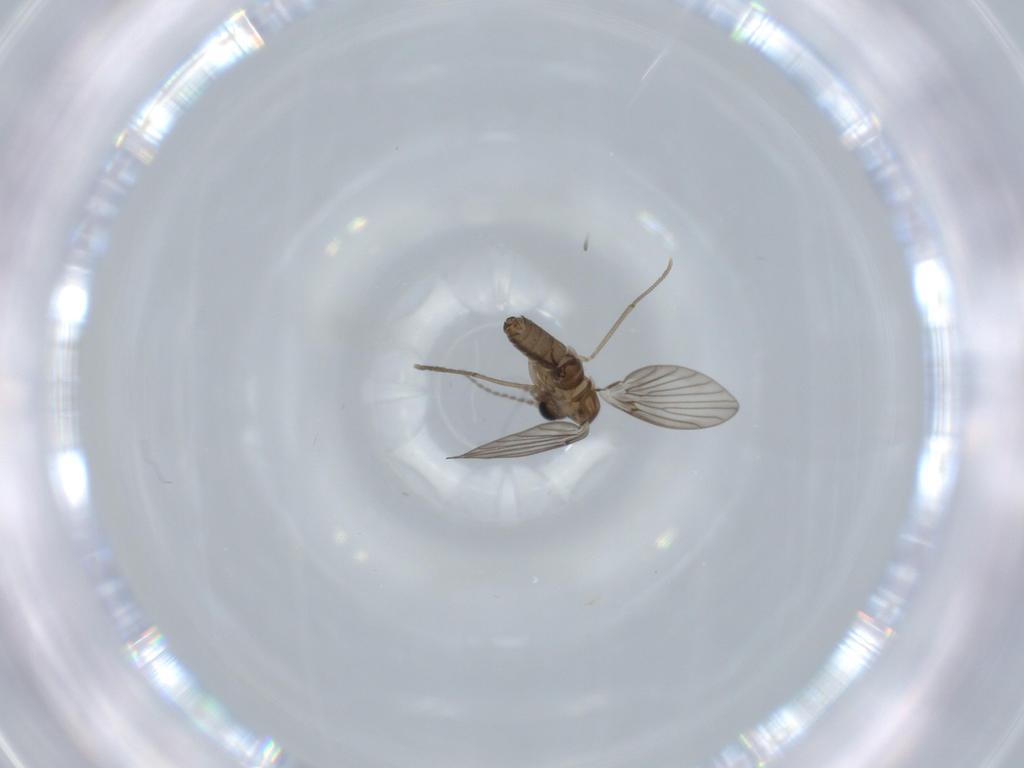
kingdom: Animalia
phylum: Arthropoda
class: Insecta
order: Diptera
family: Psychodidae
